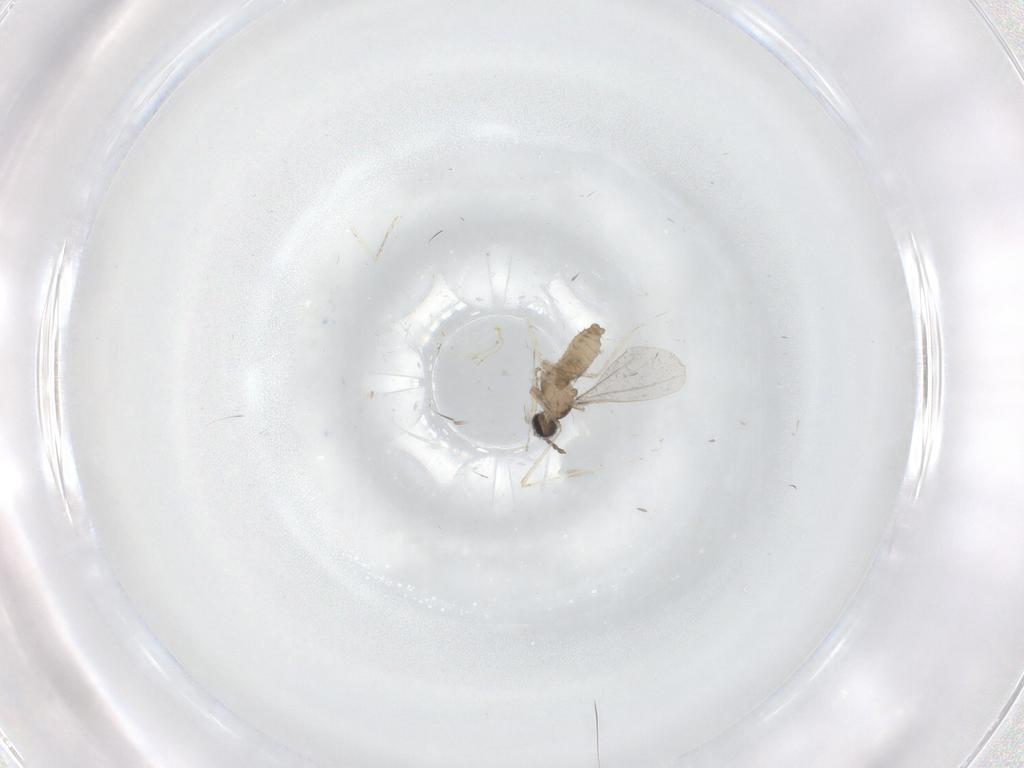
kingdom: Animalia
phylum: Arthropoda
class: Insecta
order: Diptera
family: Cecidomyiidae
